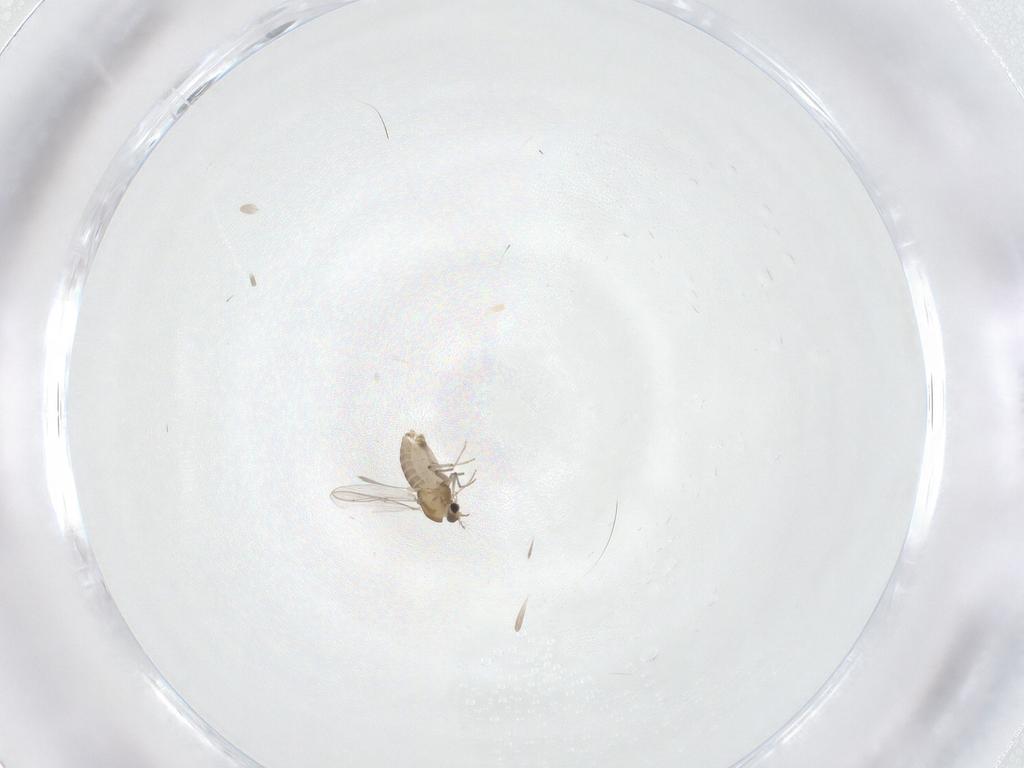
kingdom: Animalia
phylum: Arthropoda
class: Insecta
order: Diptera
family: Chironomidae
